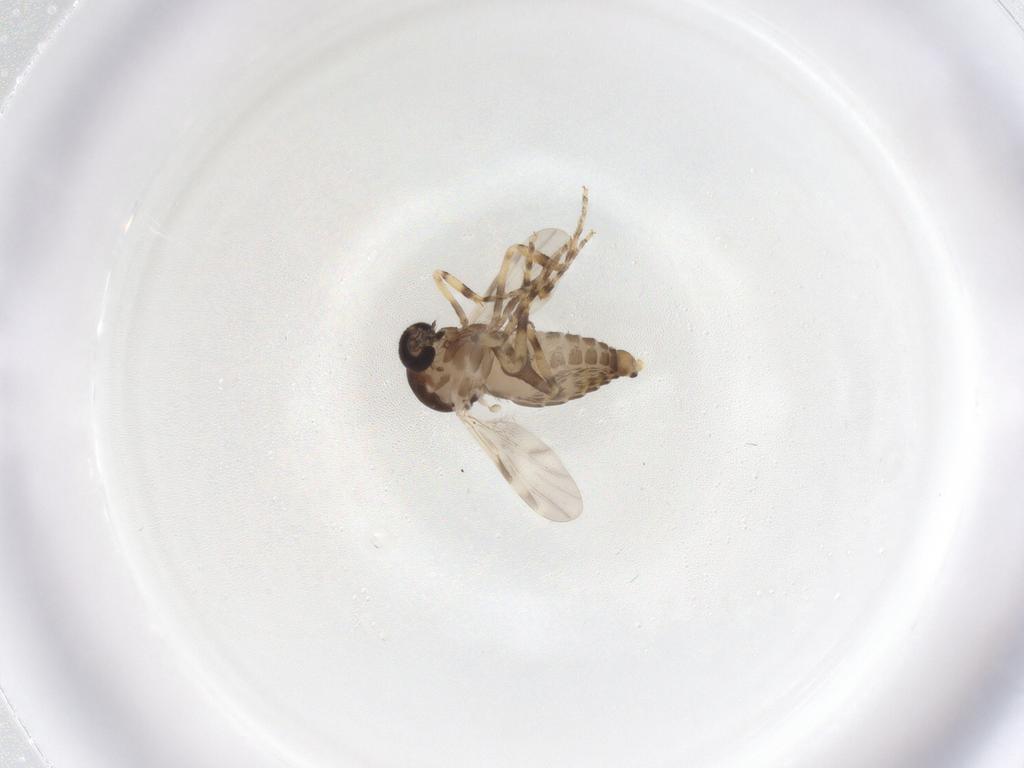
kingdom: Animalia
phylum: Arthropoda
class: Insecta
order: Diptera
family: Ceratopogonidae
